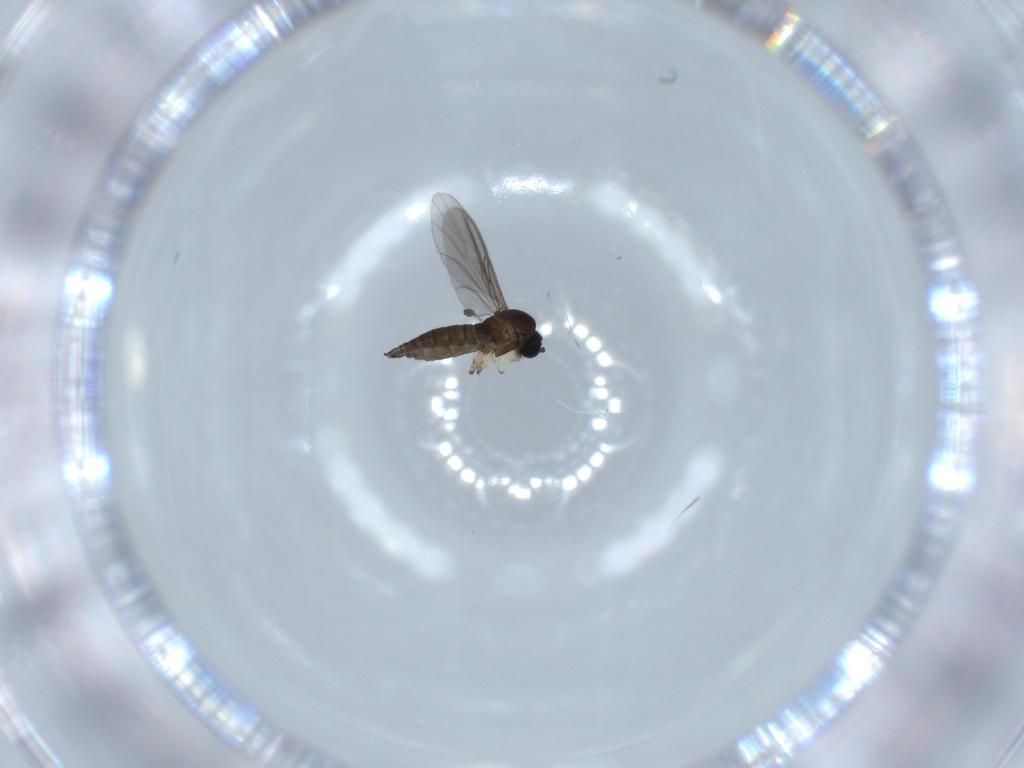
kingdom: Animalia
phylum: Arthropoda
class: Insecta
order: Diptera
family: Sciaridae
